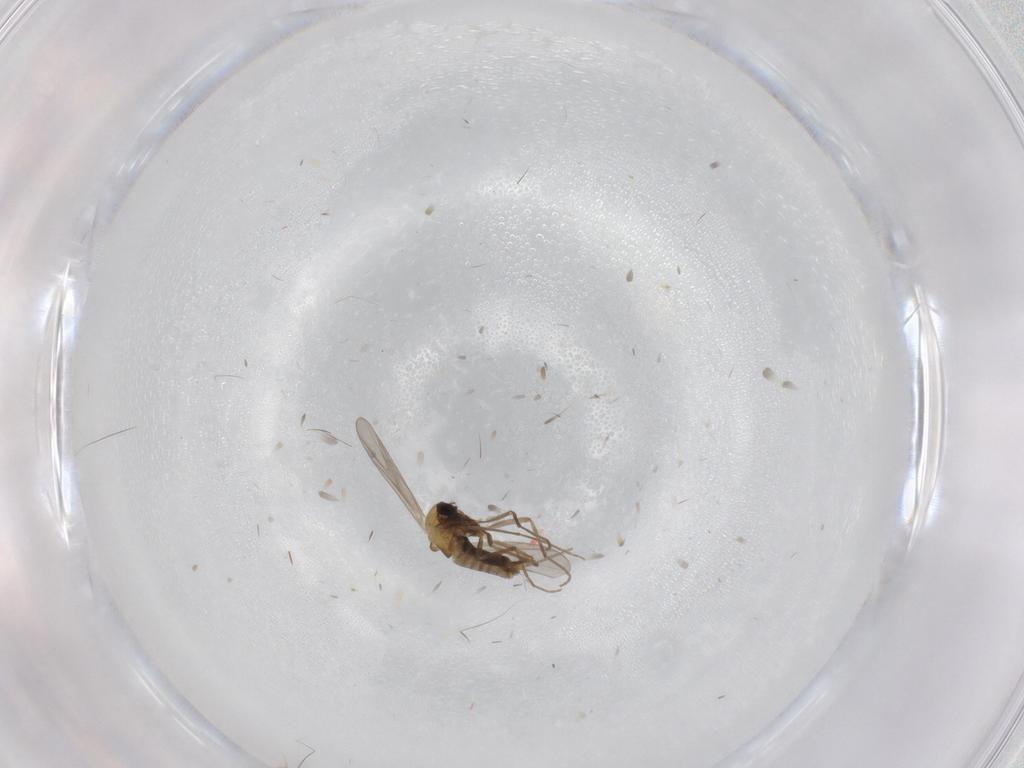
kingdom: Animalia
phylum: Arthropoda
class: Insecta
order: Diptera
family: Chironomidae
